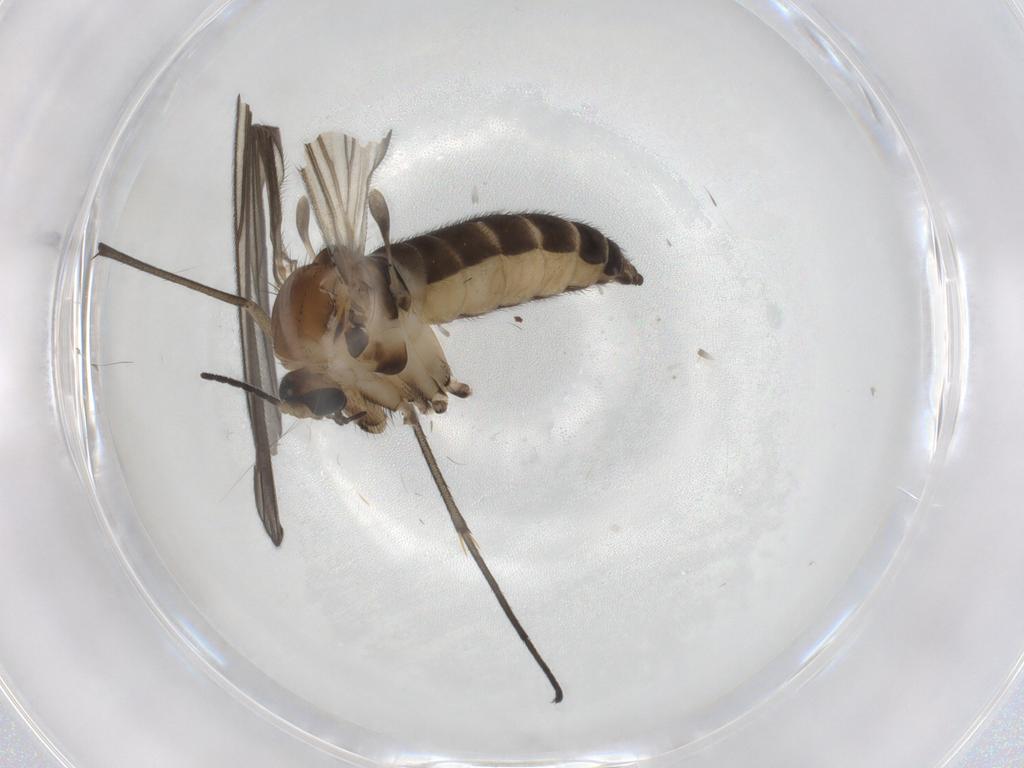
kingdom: Animalia
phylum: Arthropoda
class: Insecta
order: Diptera
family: Sciaridae
